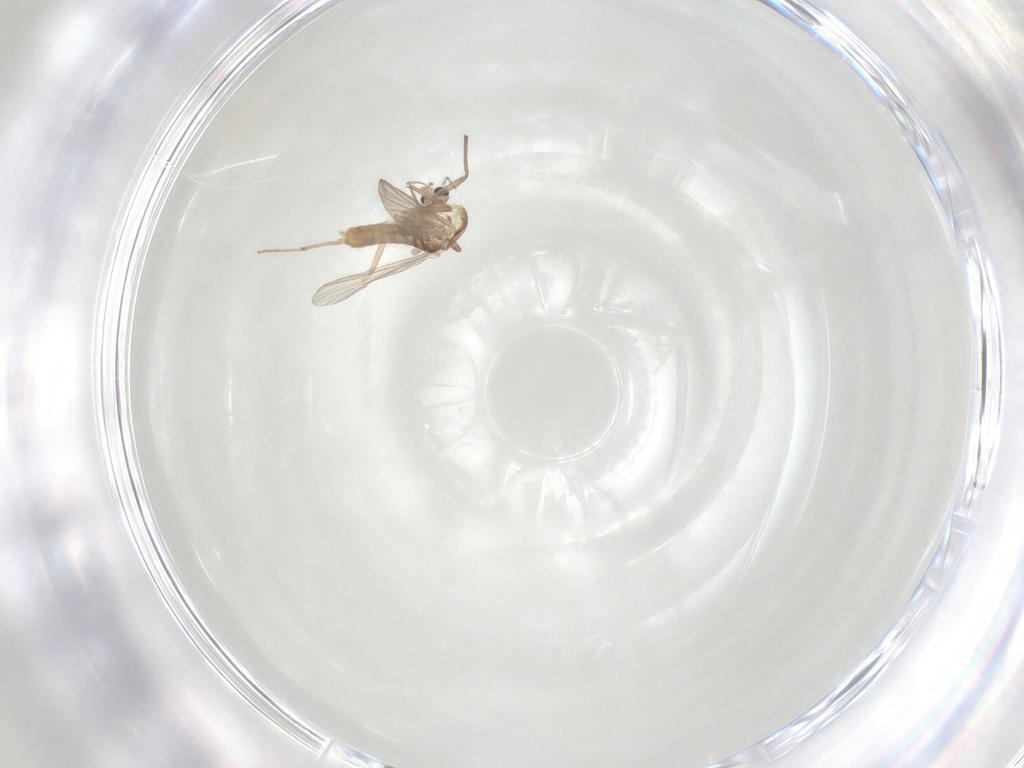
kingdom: Animalia
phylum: Arthropoda
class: Insecta
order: Diptera
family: Chironomidae
